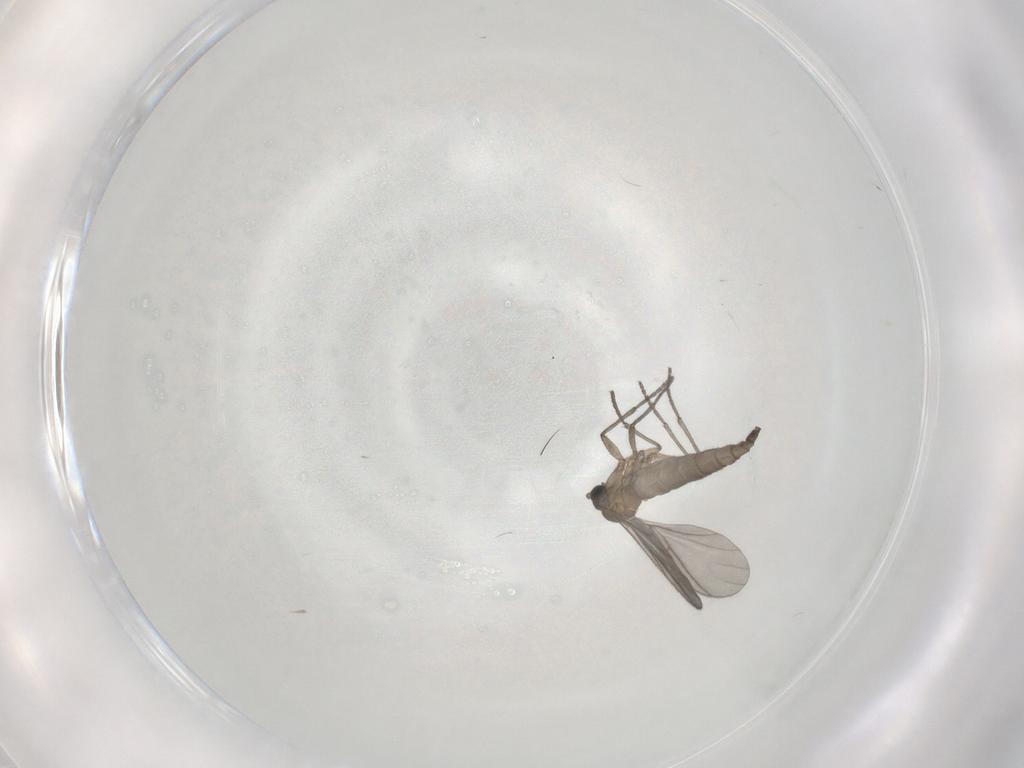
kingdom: Animalia
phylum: Arthropoda
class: Insecta
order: Diptera
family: Sciaridae
